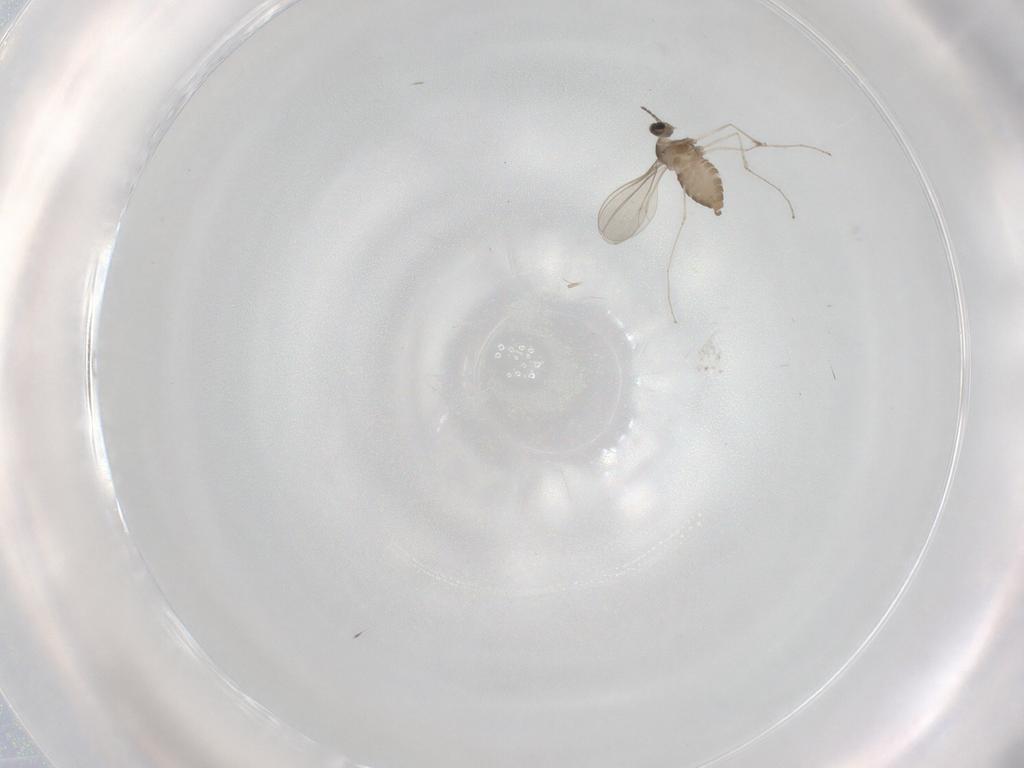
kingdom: Animalia
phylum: Arthropoda
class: Insecta
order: Diptera
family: Phoridae
